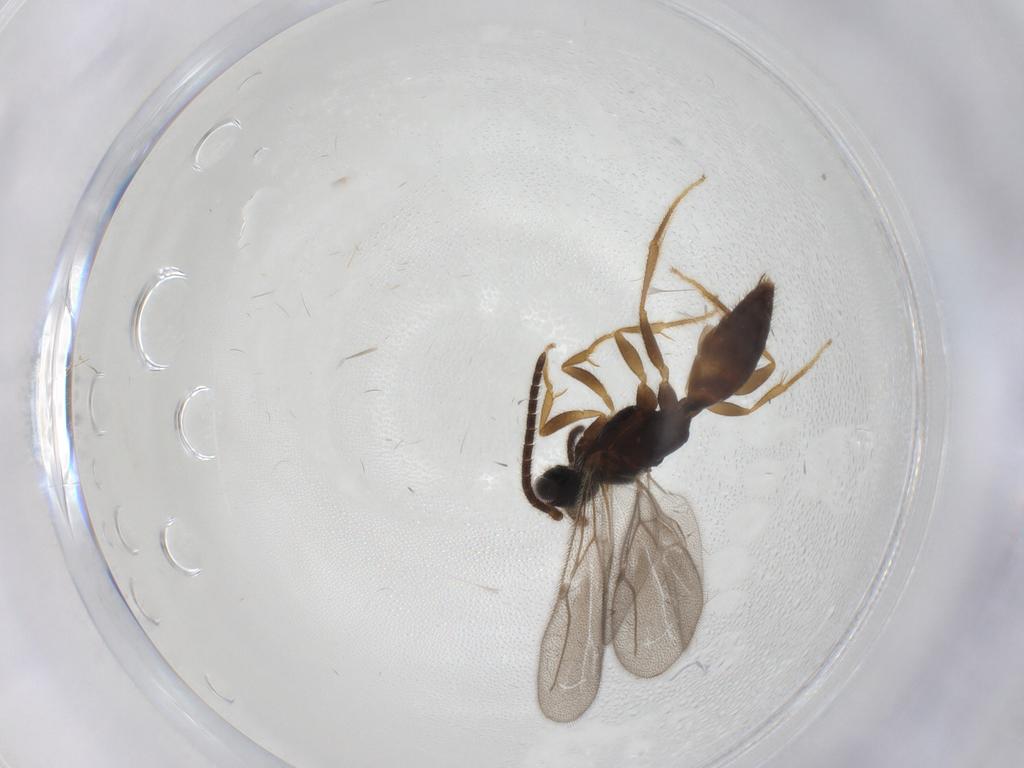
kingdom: Animalia
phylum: Arthropoda
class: Insecta
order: Hymenoptera
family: Bethylidae
